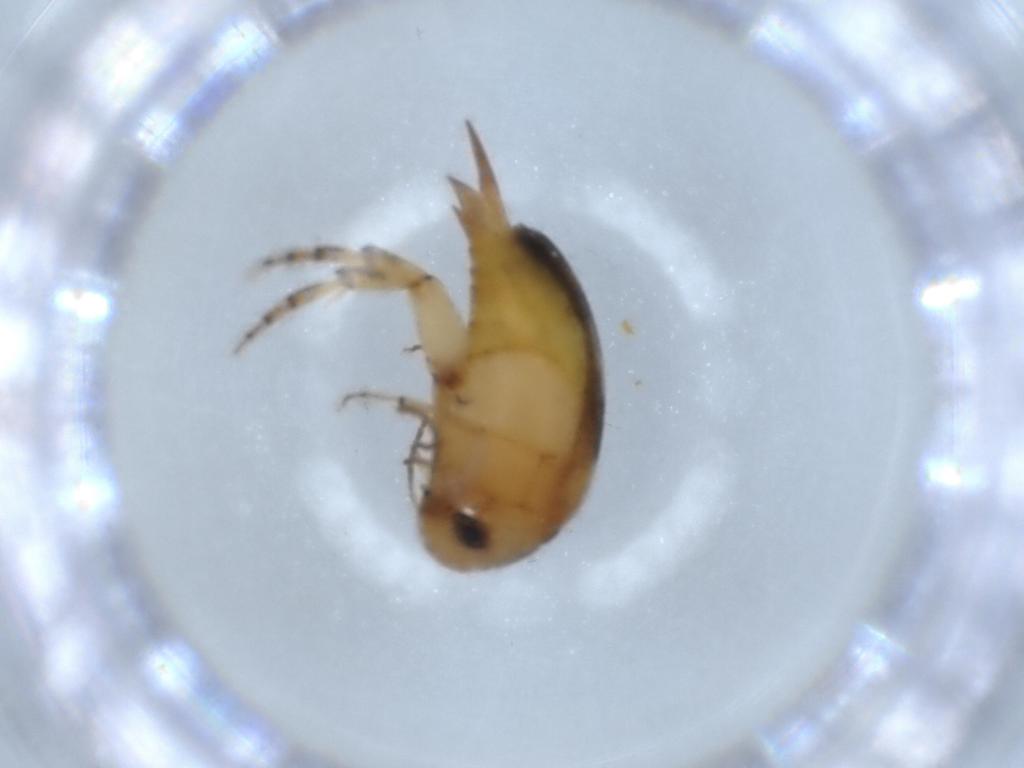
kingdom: Animalia
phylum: Arthropoda
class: Insecta
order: Coleoptera
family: Mordellidae
